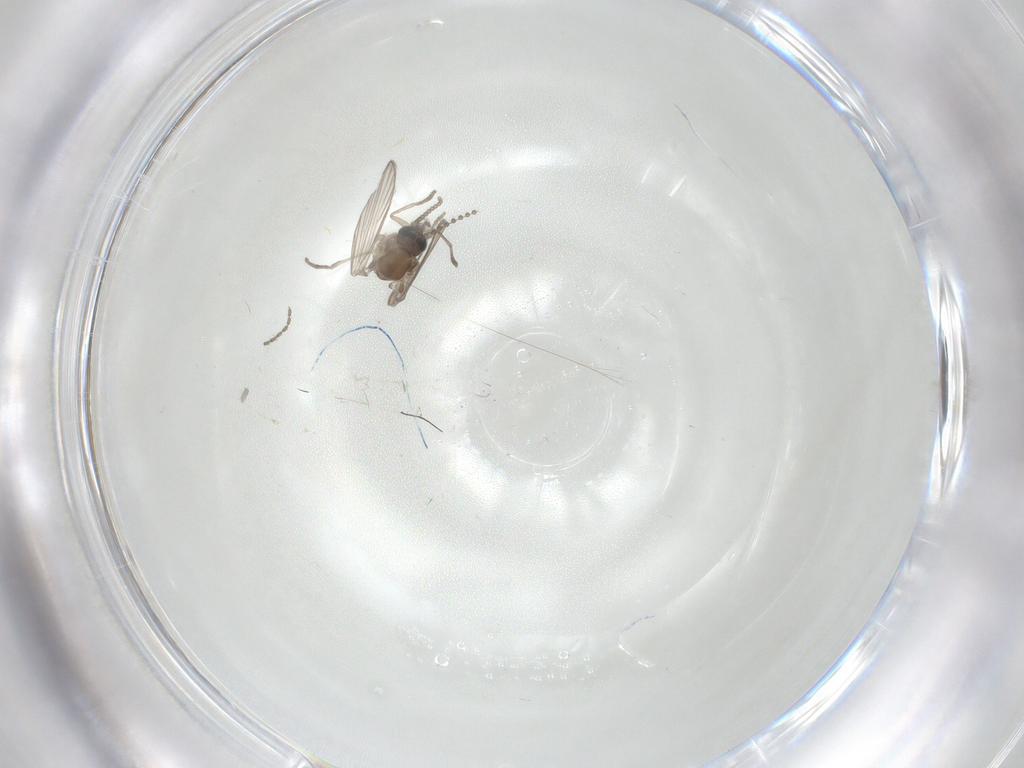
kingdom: Animalia
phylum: Arthropoda
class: Insecta
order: Diptera
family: Psychodidae
